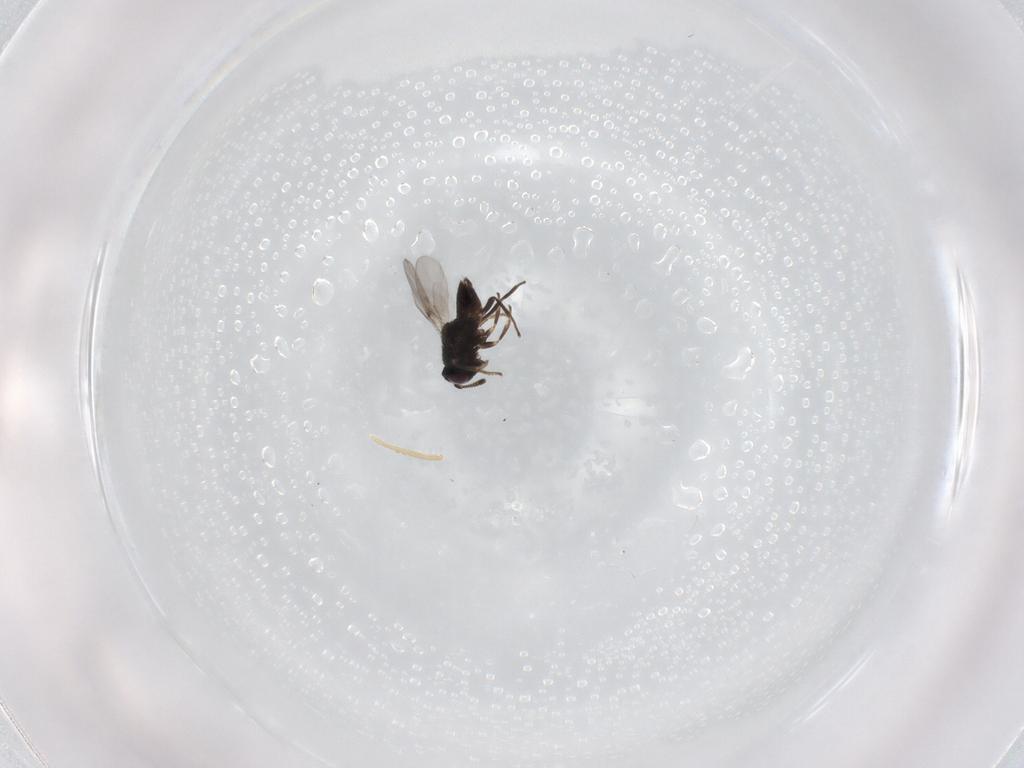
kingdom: Animalia
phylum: Arthropoda
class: Insecta
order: Hymenoptera
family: Encyrtidae
